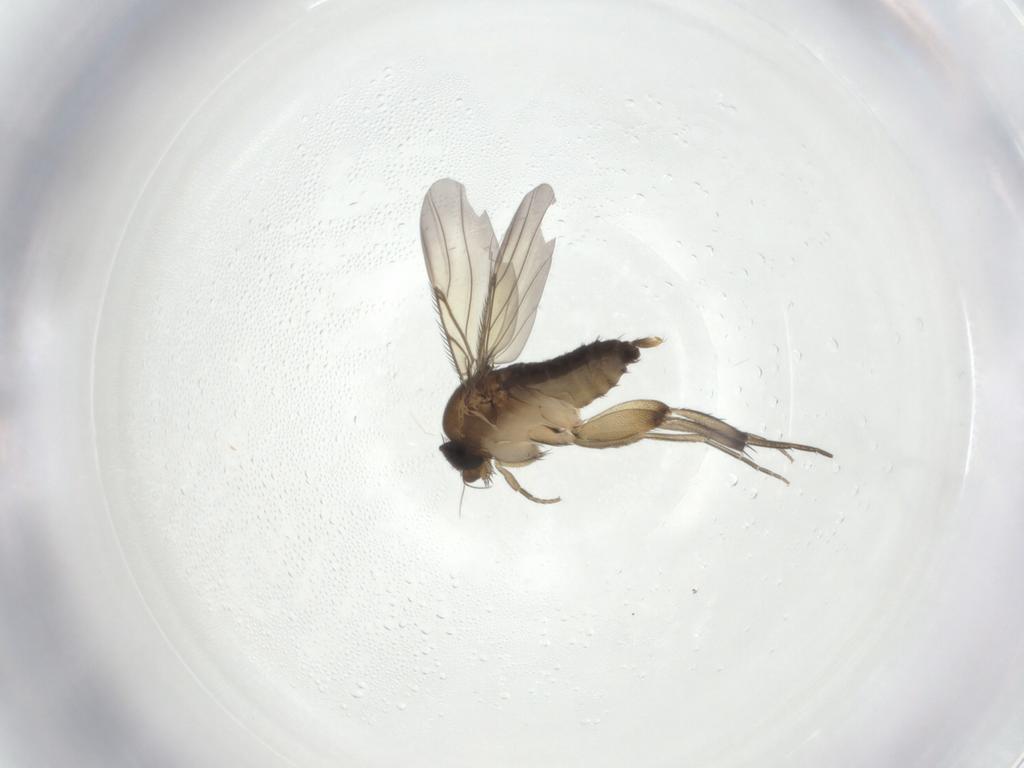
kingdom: Animalia
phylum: Arthropoda
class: Insecta
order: Diptera
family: Phoridae
